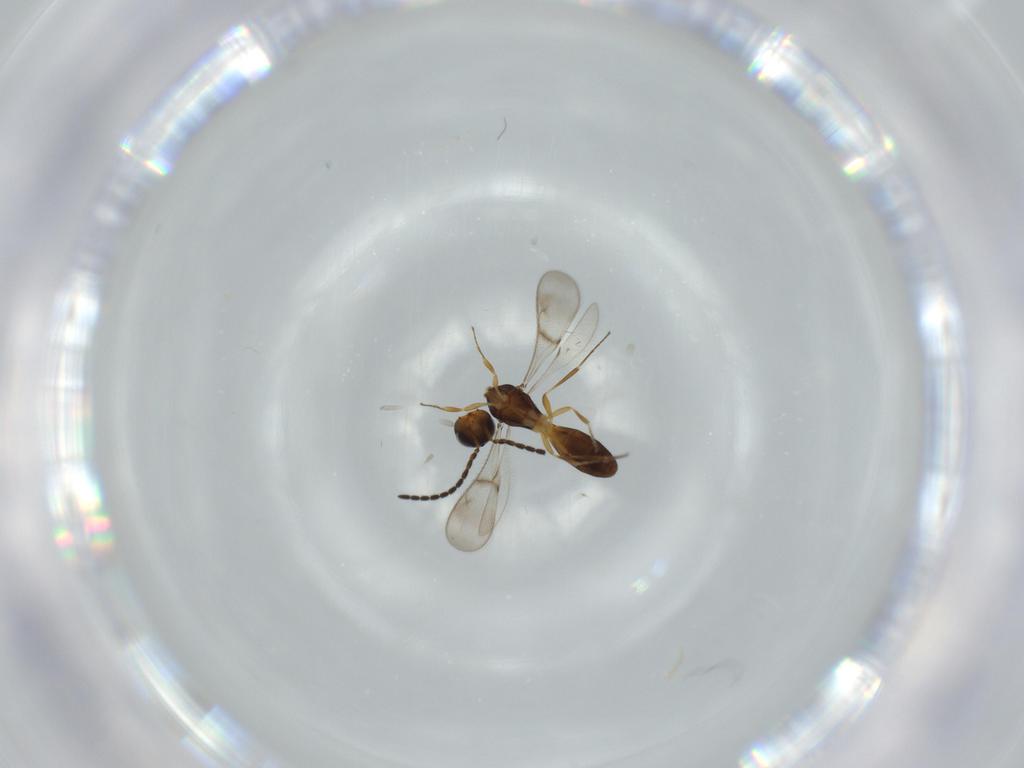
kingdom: Animalia
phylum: Arthropoda
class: Insecta
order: Hymenoptera
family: Scelionidae
